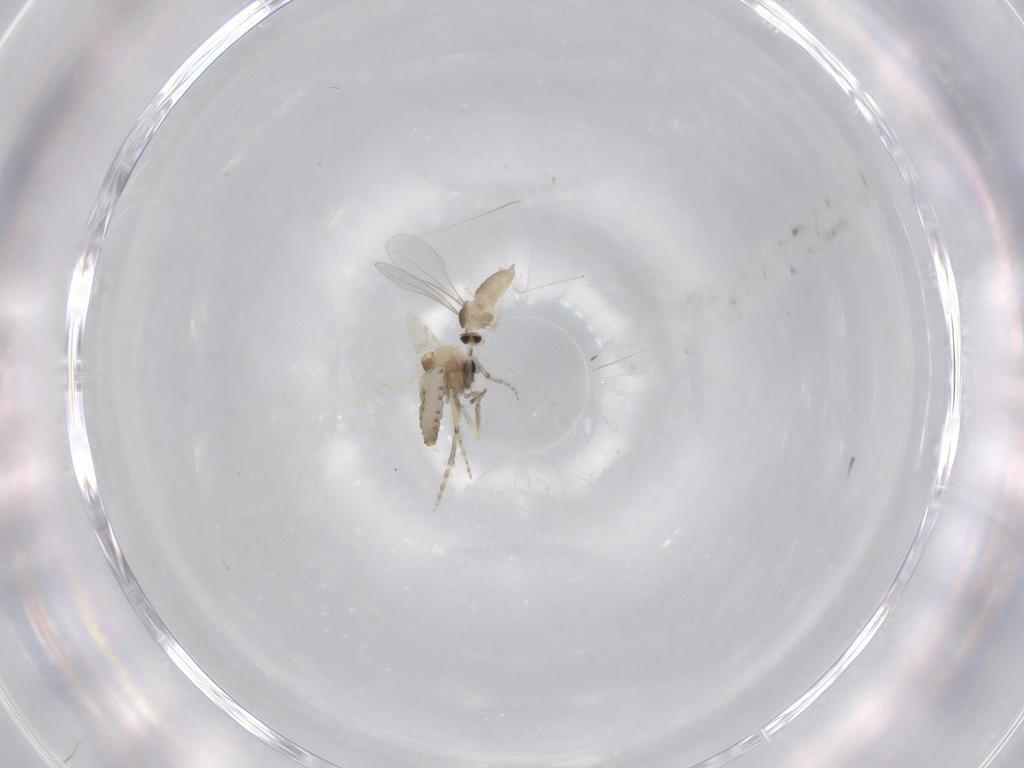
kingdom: Animalia
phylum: Arthropoda
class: Insecta
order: Diptera
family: Ceratopogonidae
